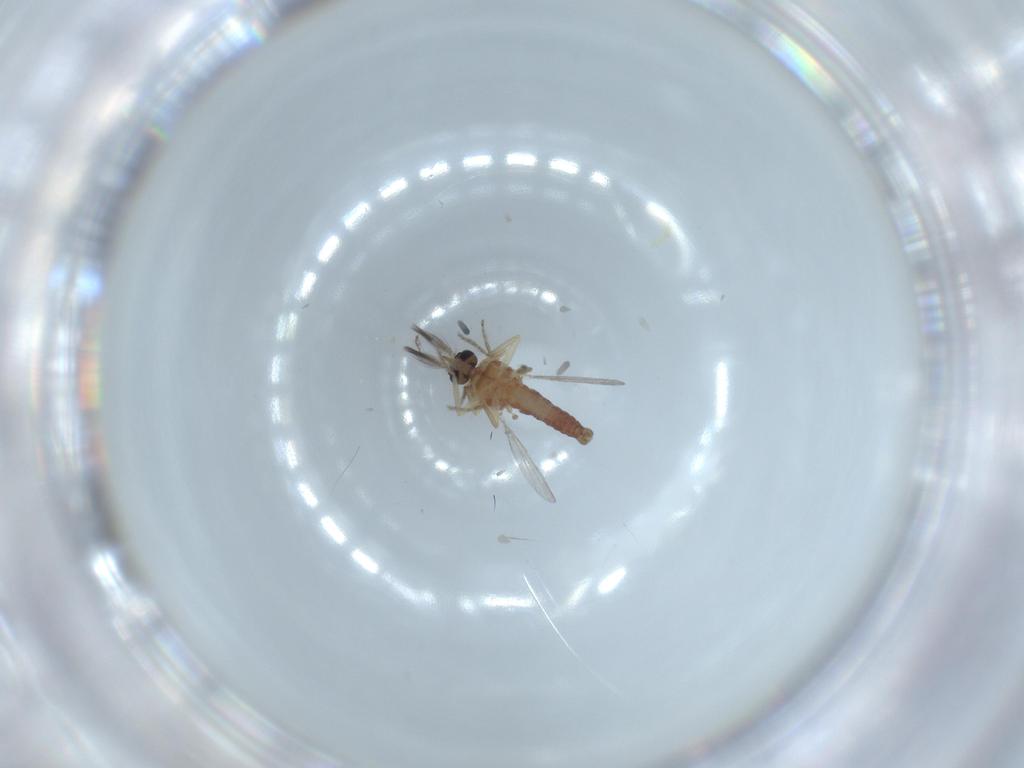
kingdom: Animalia
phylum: Arthropoda
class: Insecta
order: Diptera
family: Ceratopogonidae
